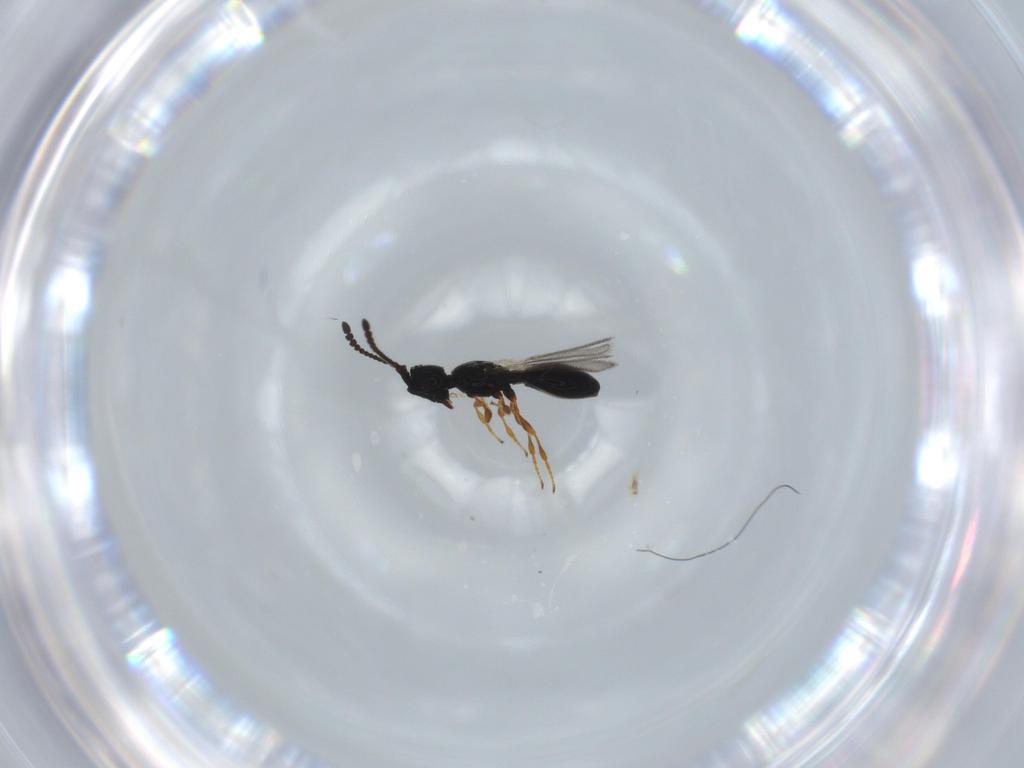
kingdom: Animalia
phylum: Arthropoda
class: Insecta
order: Hymenoptera
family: Diapriidae
